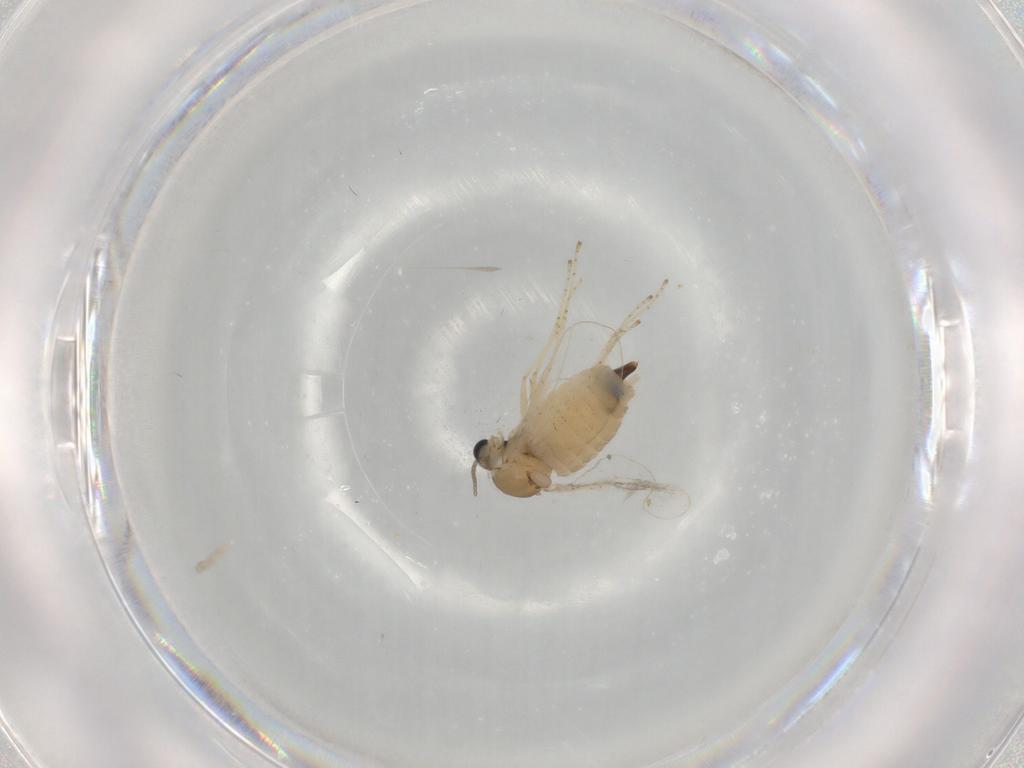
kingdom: Animalia
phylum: Arthropoda
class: Insecta
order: Diptera
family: Cecidomyiidae
